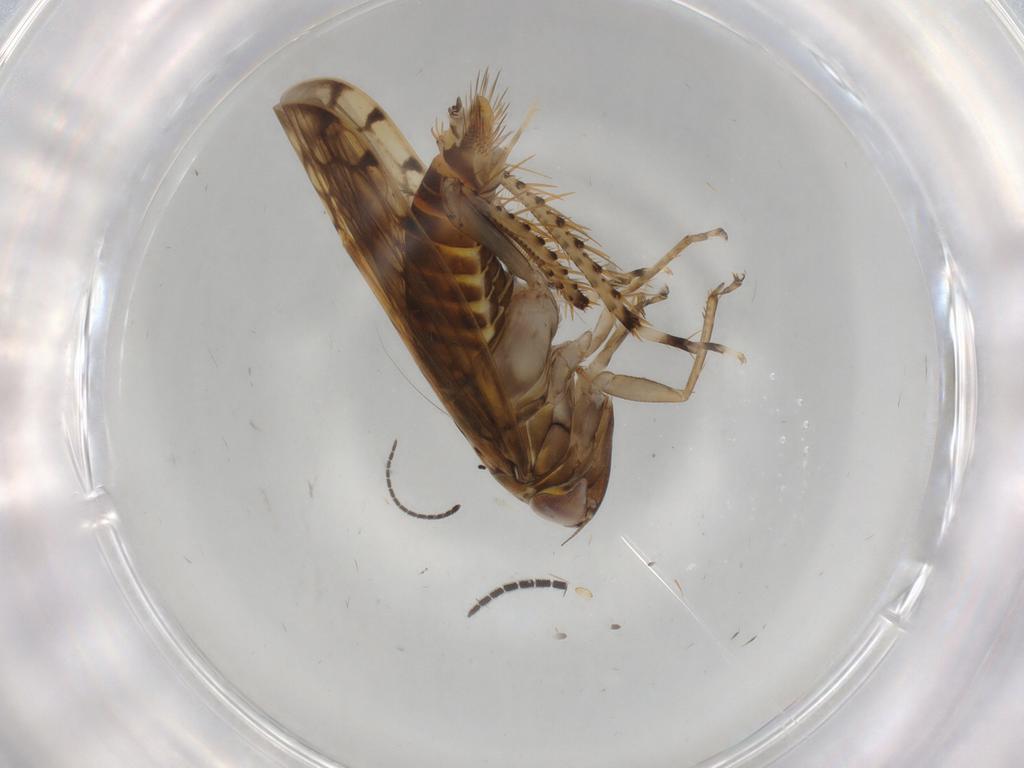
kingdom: Animalia
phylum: Arthropoda
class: Insecta
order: Hemiptera
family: Cicadellidae
